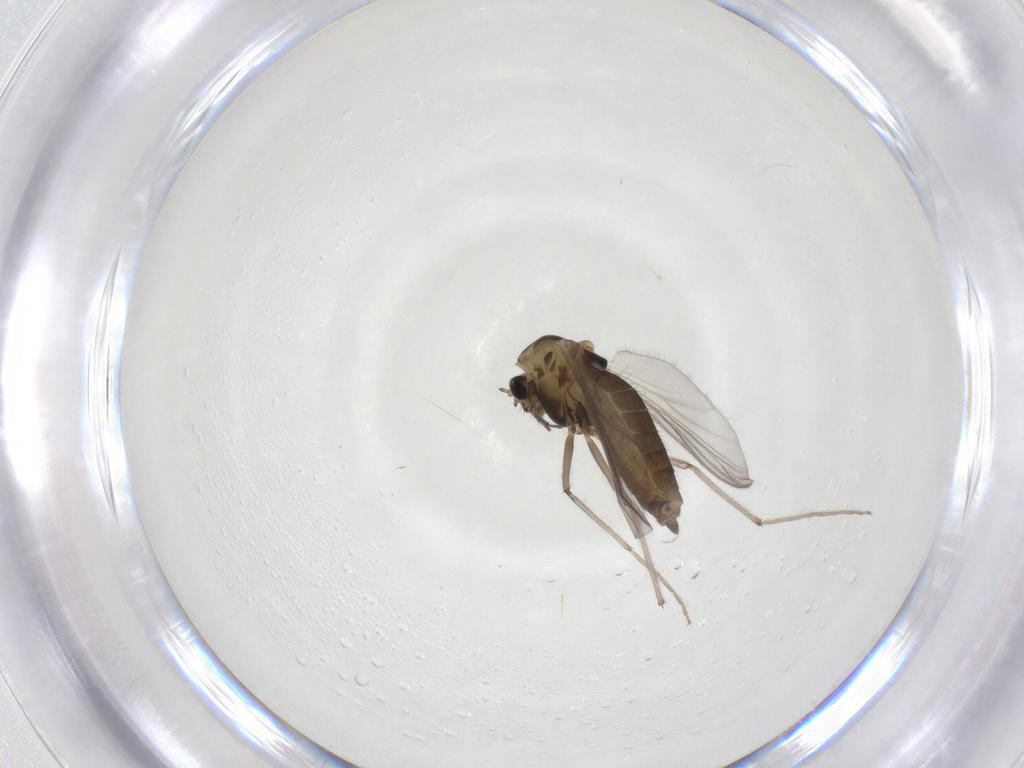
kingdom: Animalia
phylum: Arthropoda
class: Insecta
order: Diptera
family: Chironomidae
